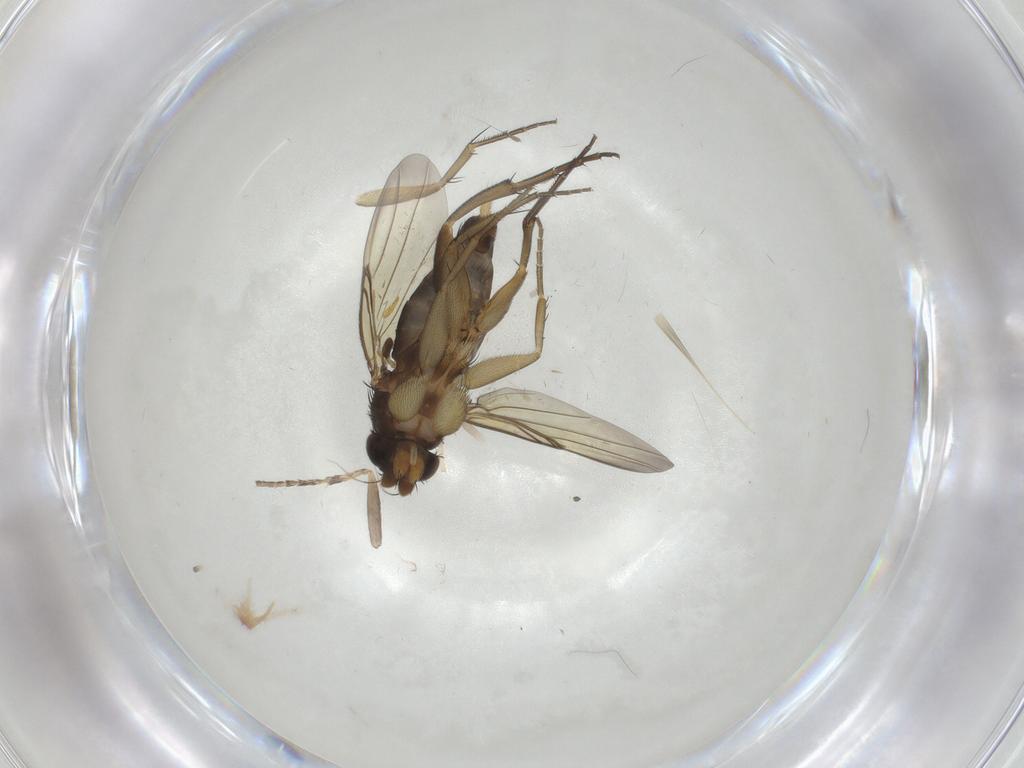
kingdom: Animalia
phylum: Arthropoda
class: Insecta
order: Diptera
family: Phoridae
